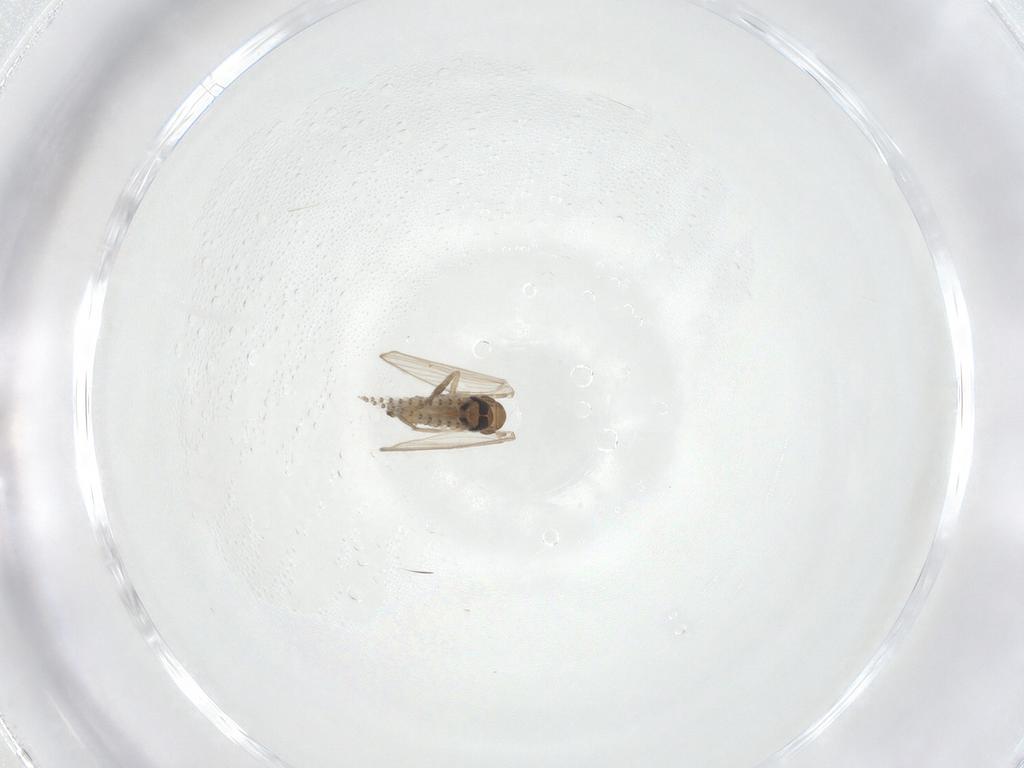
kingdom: Animalia
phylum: Arthropoda
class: Insecta
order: Diptera
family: Psychodidae
